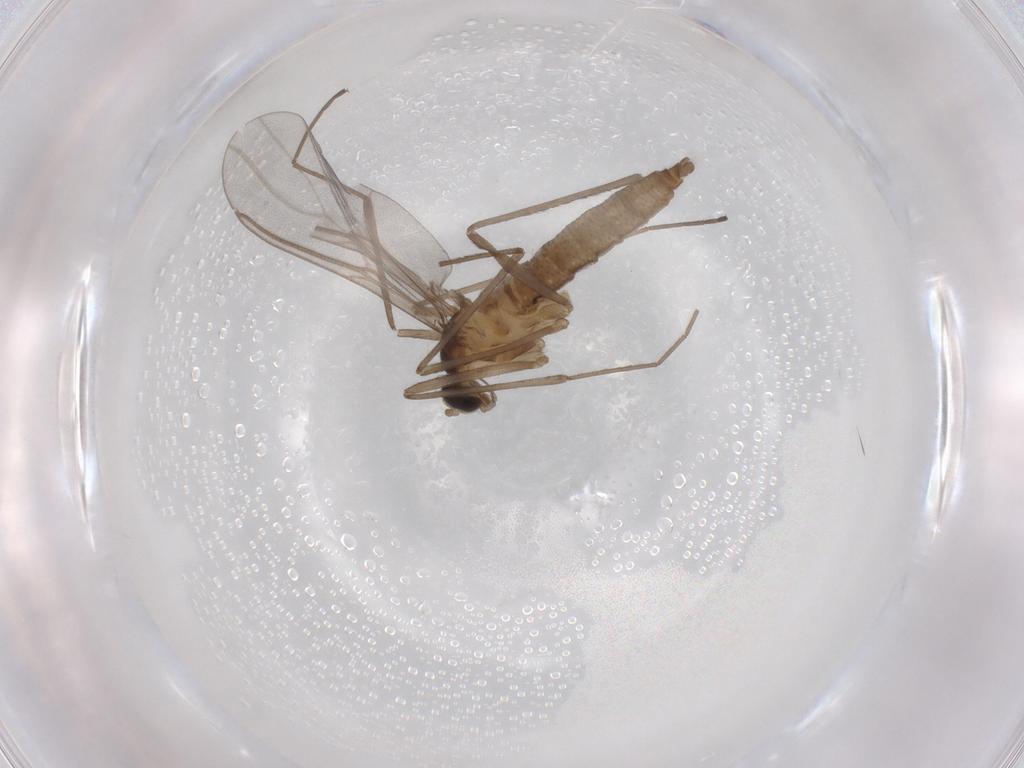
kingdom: Animalia
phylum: Arthropoda
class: Insecta
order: Diptera
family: Cecidomyiidae
